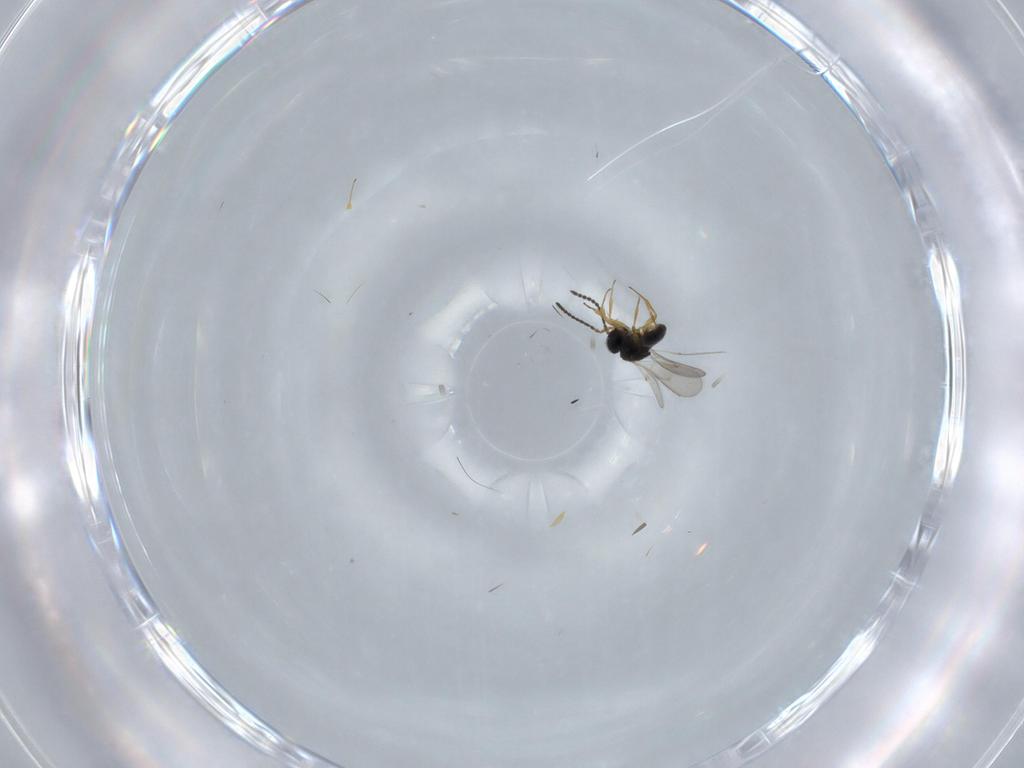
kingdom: Animalia
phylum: Arthropoda
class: Insecta
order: Hymenoptera
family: Scelionidae
